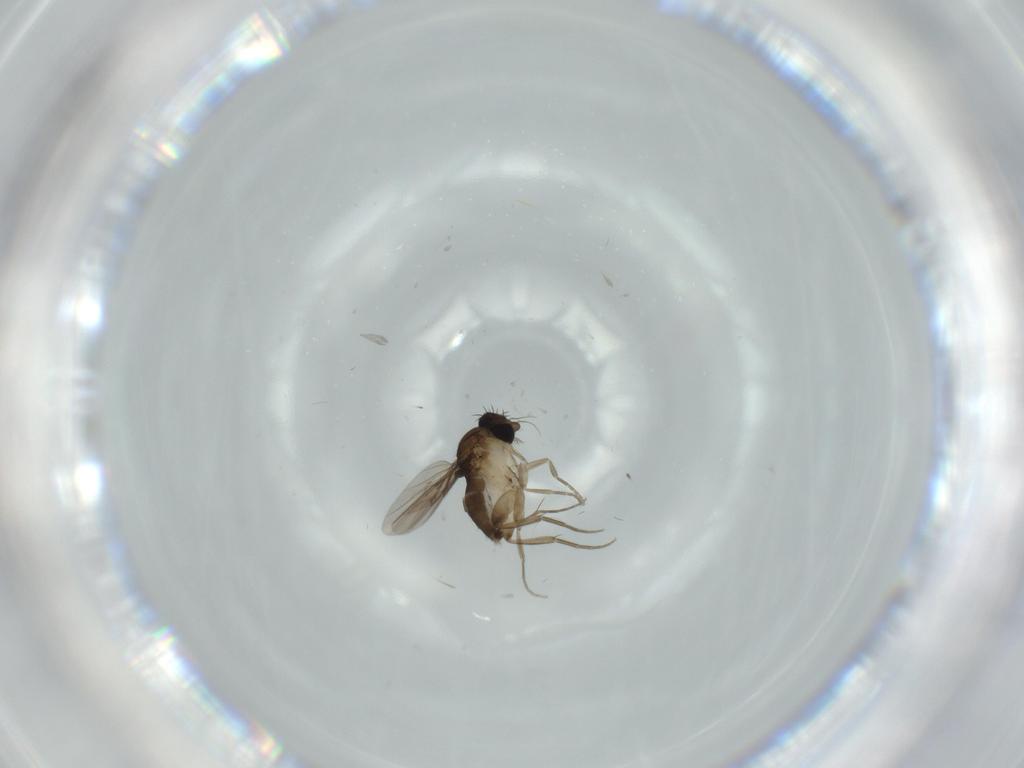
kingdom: Animalia
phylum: Arthropoda
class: Insecta
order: Diptera
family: Phoridae
